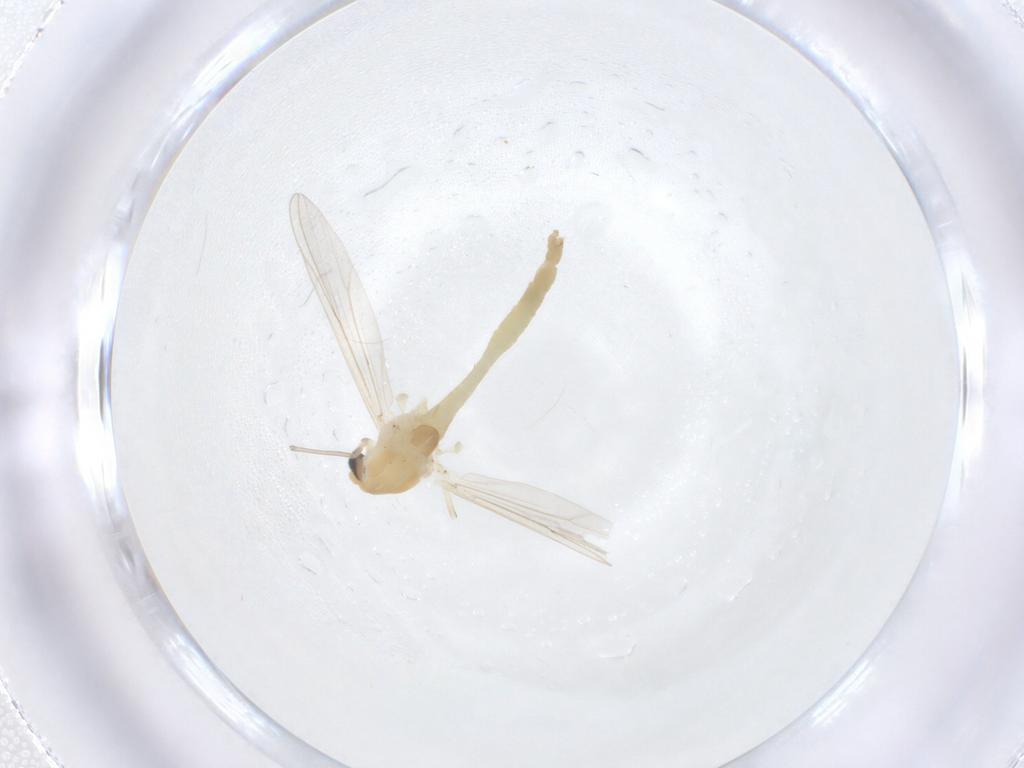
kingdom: Animalia
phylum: Arthropoda
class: Insecta
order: Diptera
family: Chironomidae
